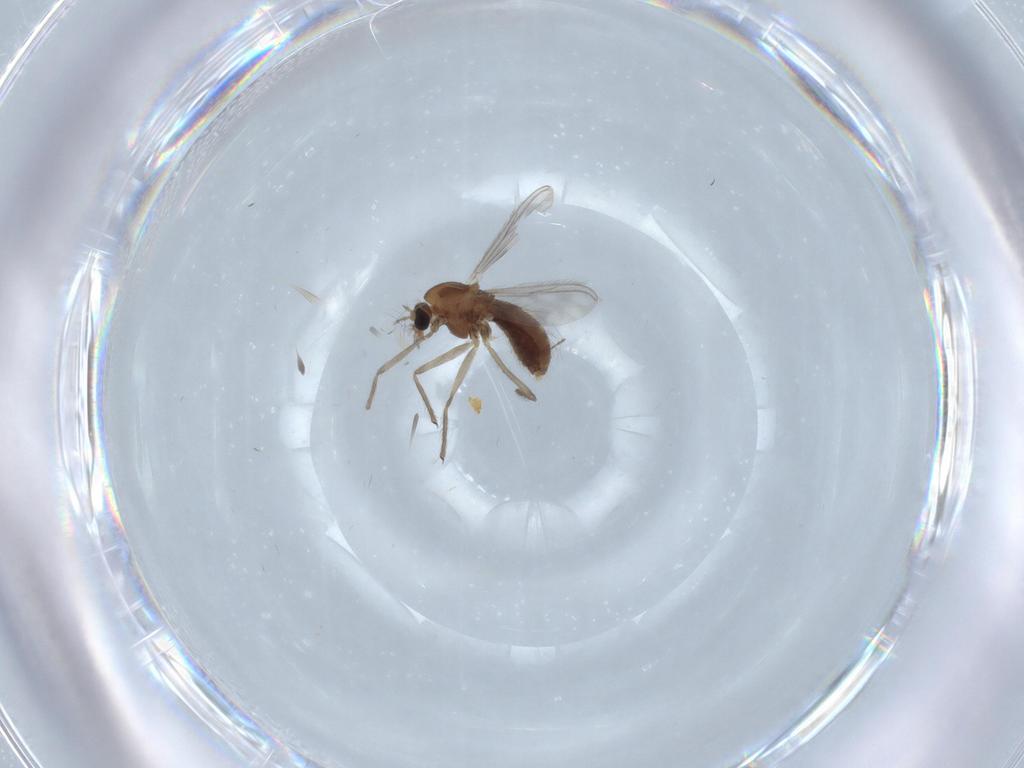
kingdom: Animalia
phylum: Arthropoda
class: Insecta
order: Diptera
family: Chironomidae
